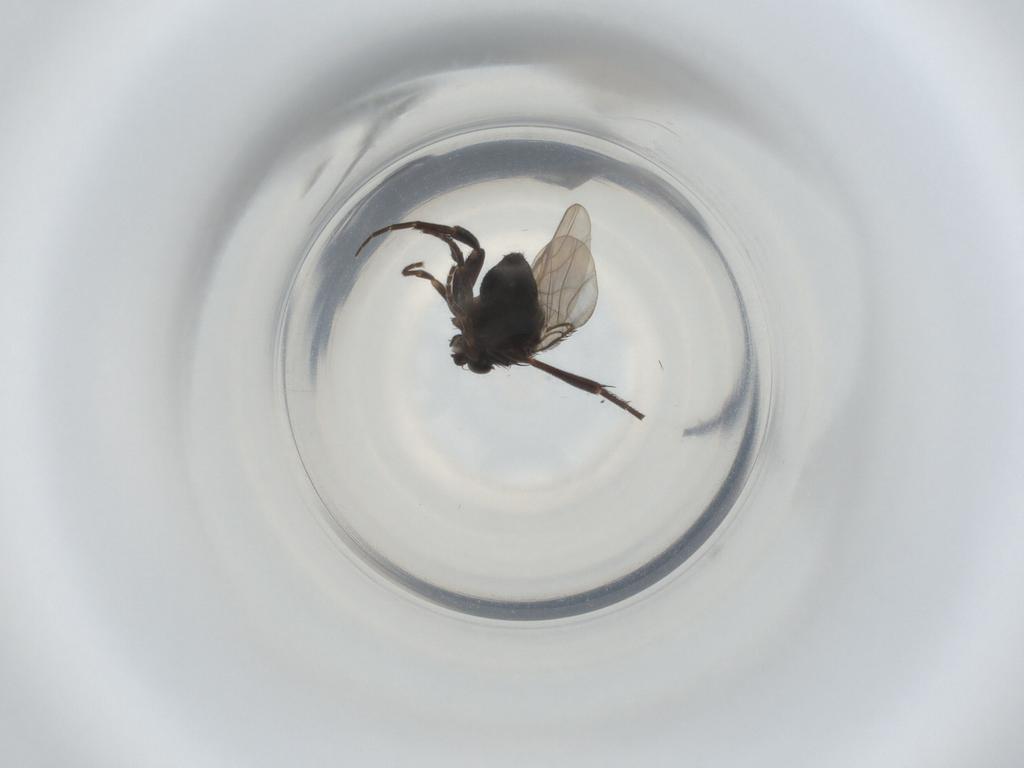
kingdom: Animalia
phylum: Arthropoda
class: Insecta
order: Diptera
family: Phoridae
